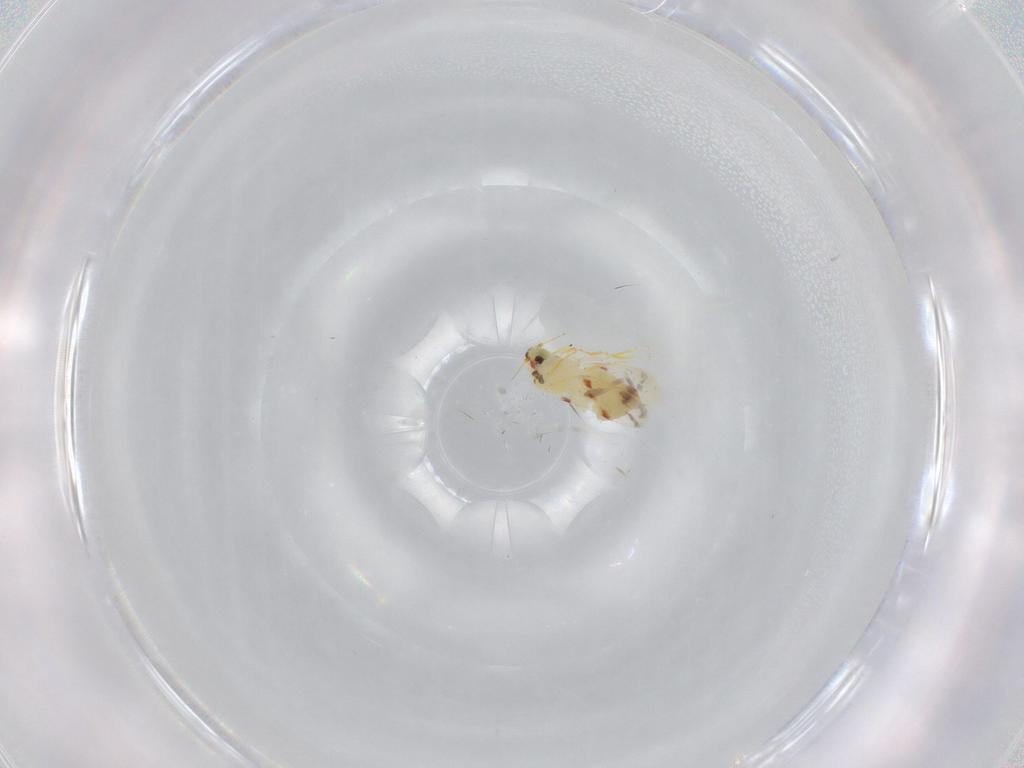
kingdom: Animalia
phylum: Arthropoda
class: Insecta
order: Hemiptera
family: Aleyrodidae
